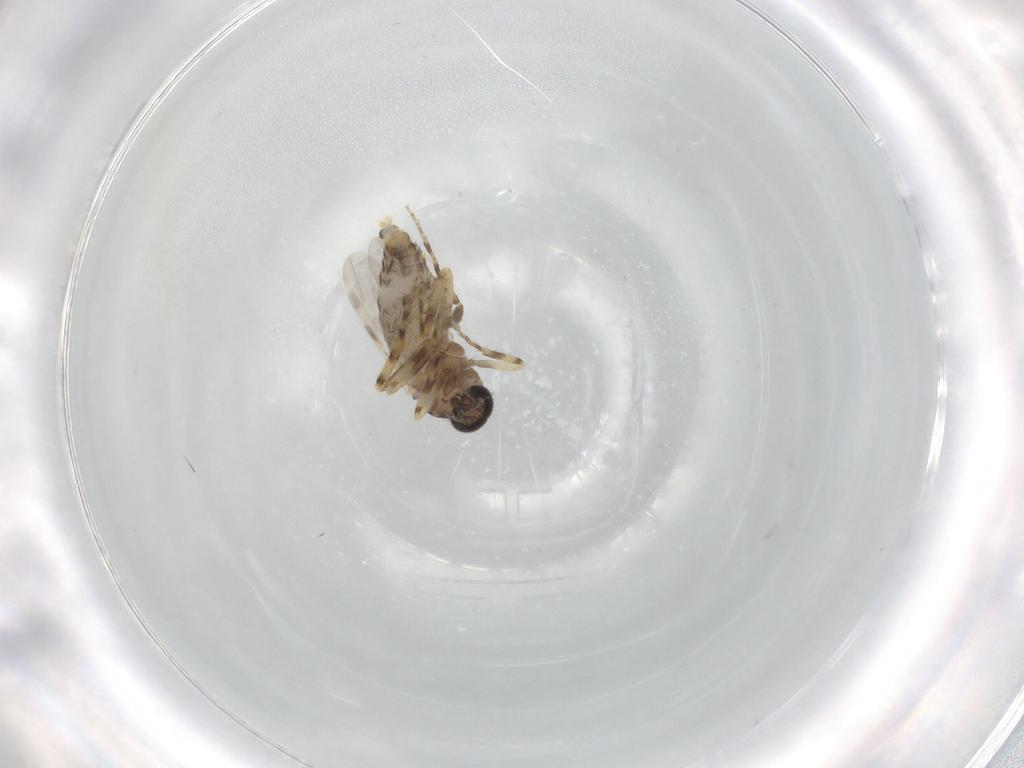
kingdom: Animalia
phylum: Arthropoda
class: Insecta
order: Diptera
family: Ceratopogonidae
